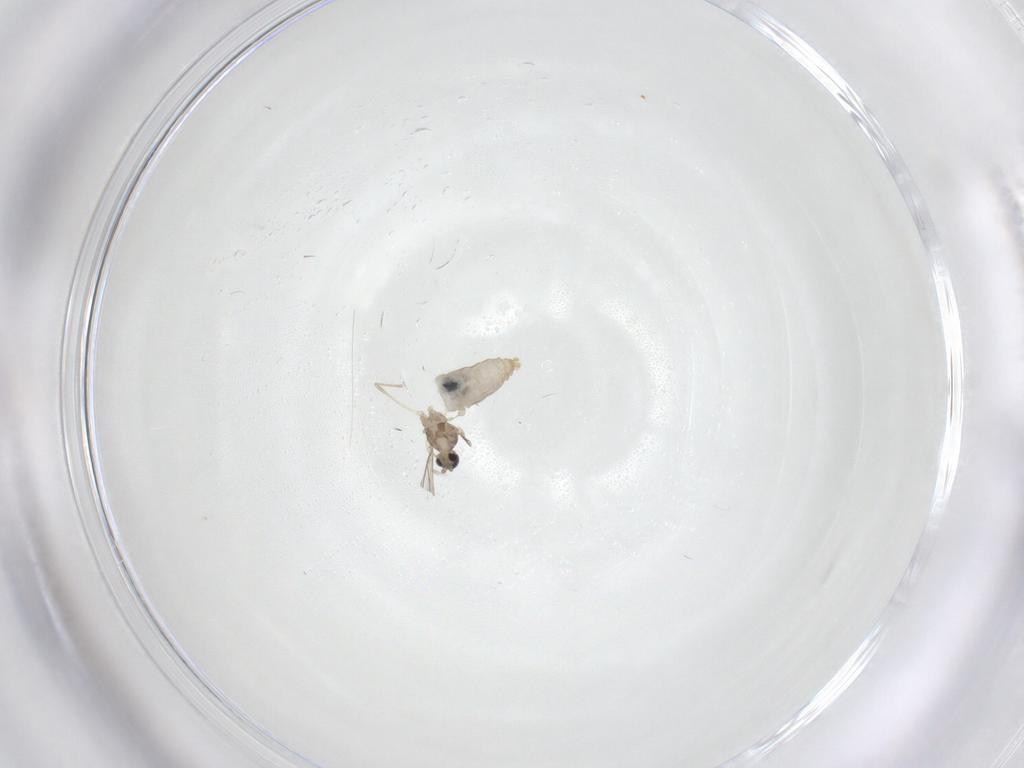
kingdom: Animalia
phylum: Arthropoda
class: Insecta
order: Diptera
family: Cecidomyiidae
